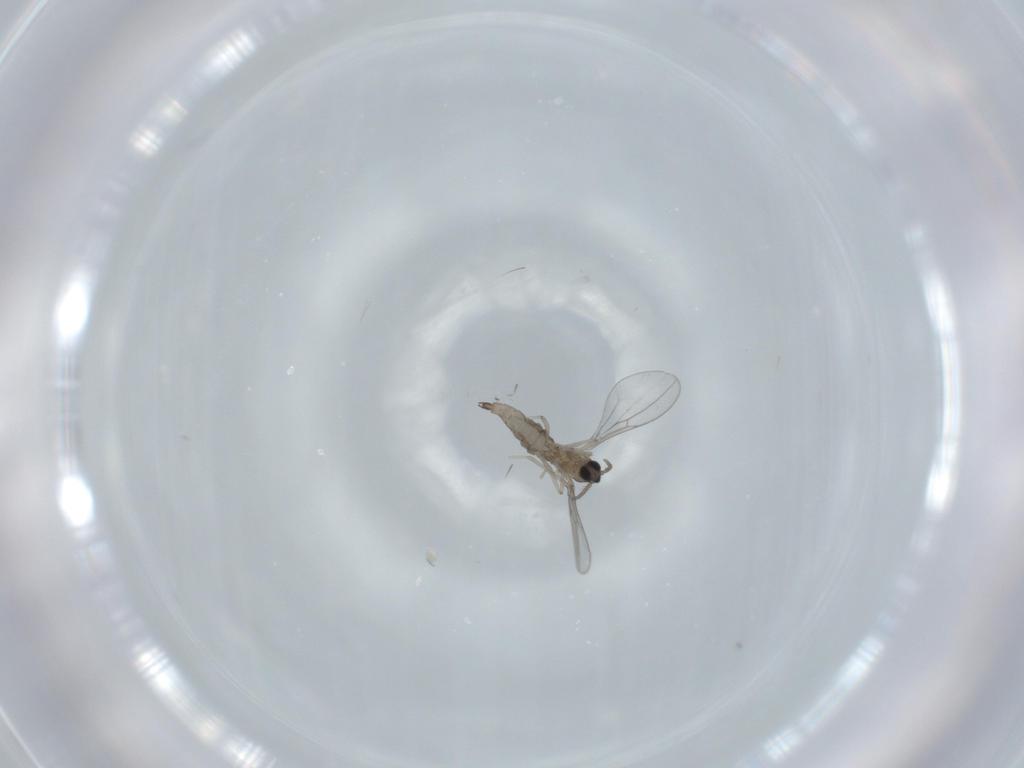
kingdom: Animalia
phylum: Arthropoda
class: Insecta
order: Diptera
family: Cecidomyiidae
